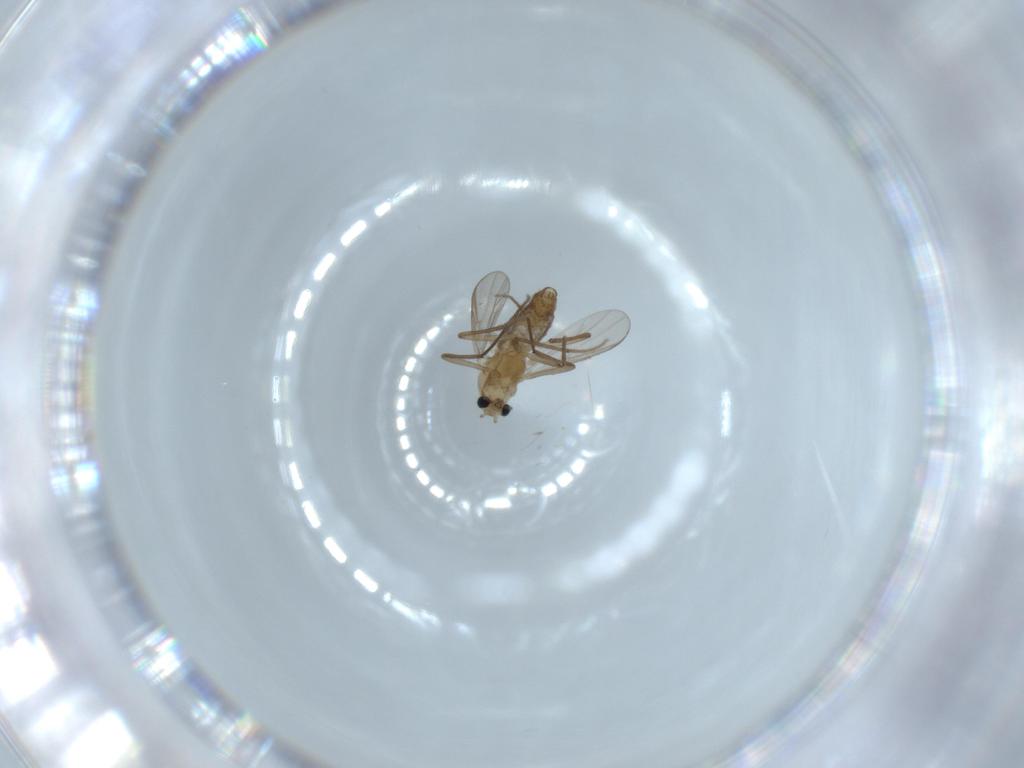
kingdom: Animalia
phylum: Arthropoda
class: Insecta
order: Diptera
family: Chironomidae
